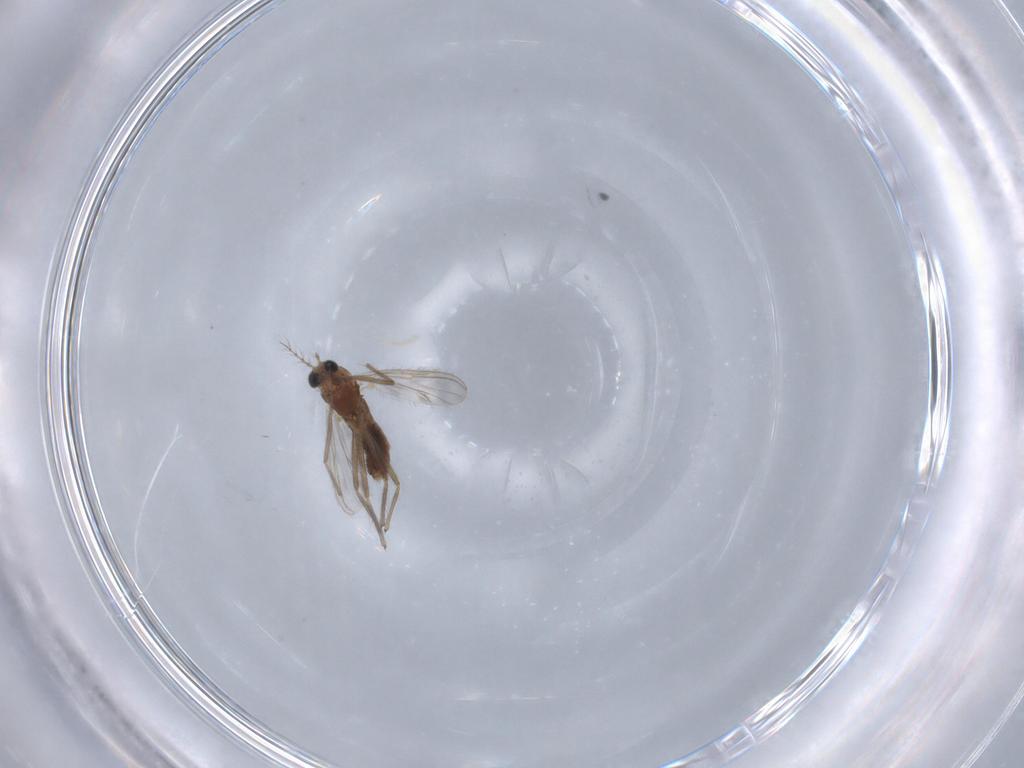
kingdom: Animalia
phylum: Arthropoda
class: Insecta
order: Diptera
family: Chironomidae
